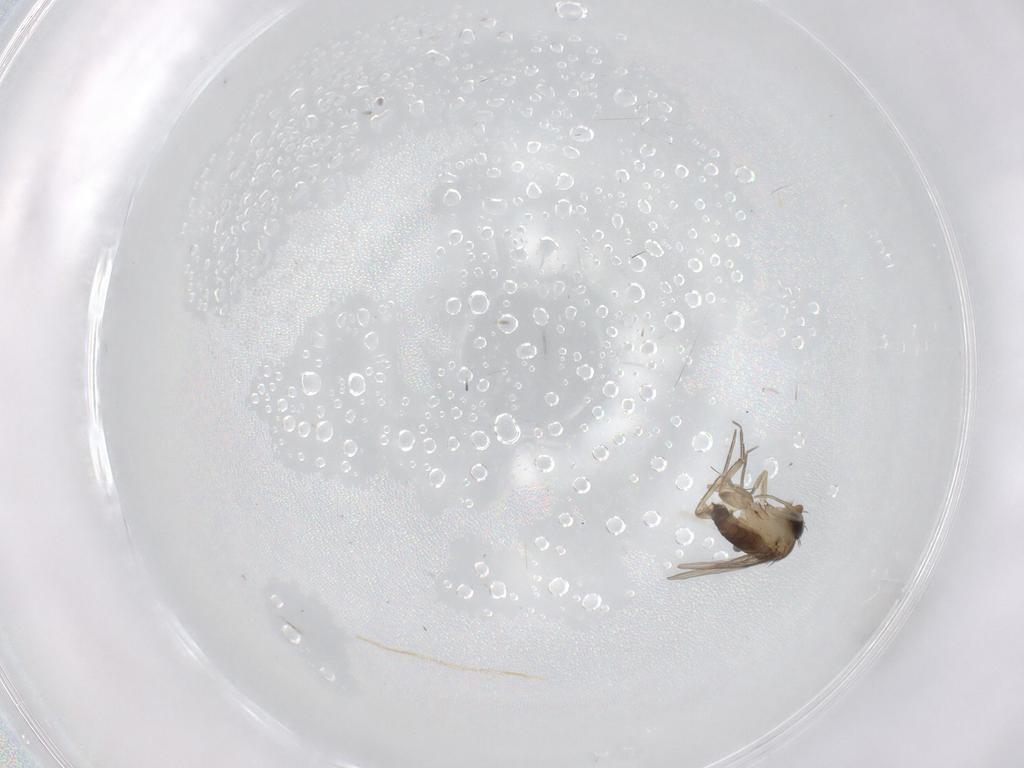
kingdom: Animalia
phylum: Arthropoda
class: Insecta
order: Diptera
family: Phoridae
